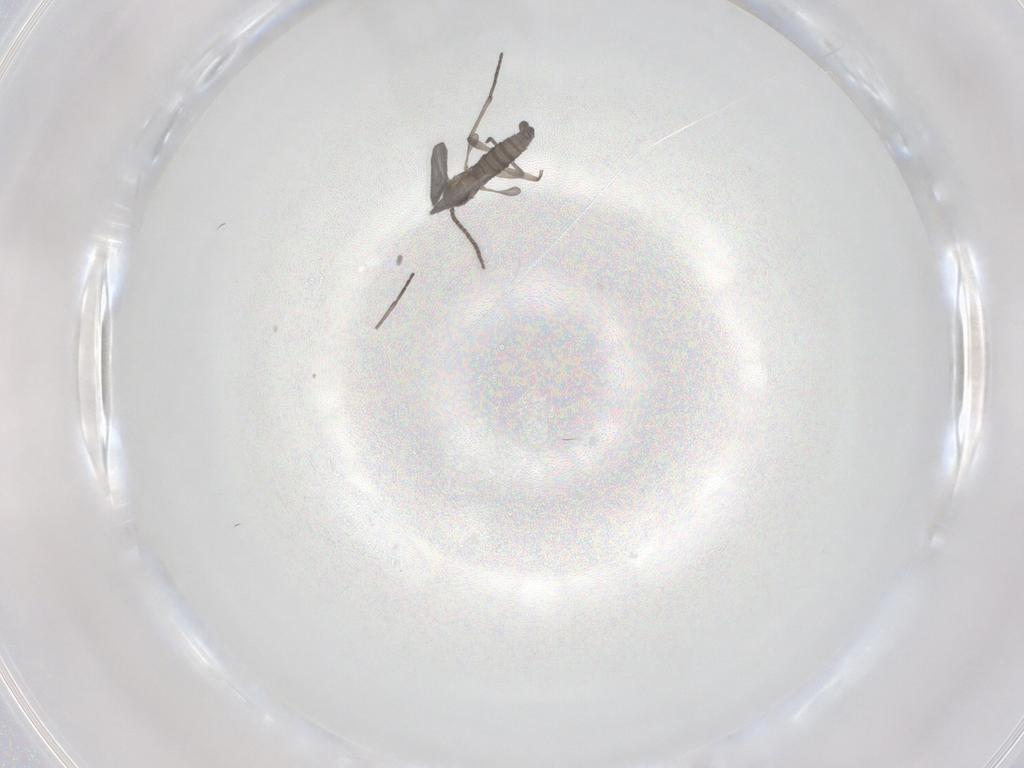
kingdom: Animalia
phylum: Arthropoda
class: Insecta
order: Diptera
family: Sciaridae
